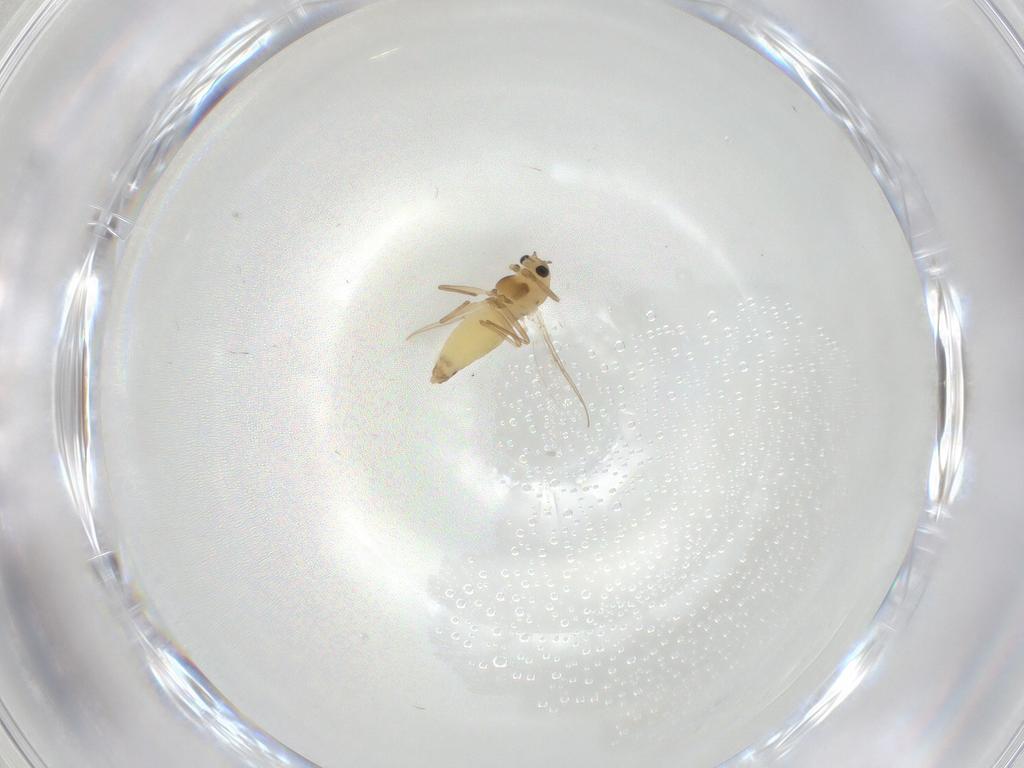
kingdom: Animalia
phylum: Arthropoda
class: Insecta
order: Diptera
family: Chironomidae
